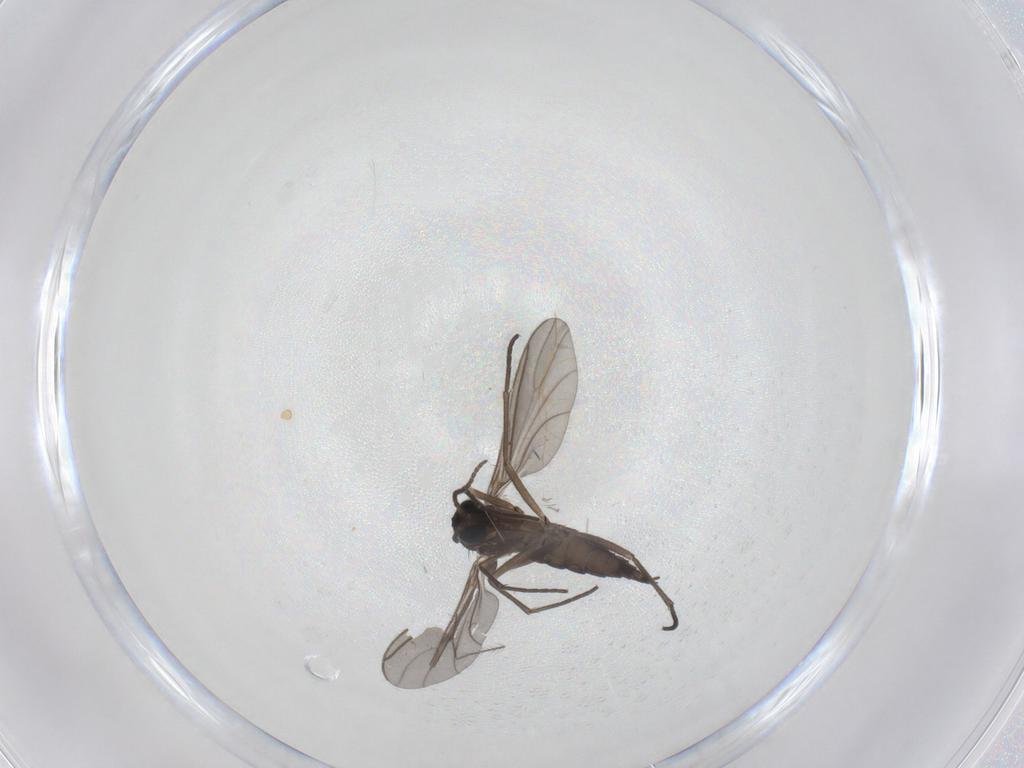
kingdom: Animalia
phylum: Arthropoda
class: Insecta
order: Diptera
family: Sciaridae
